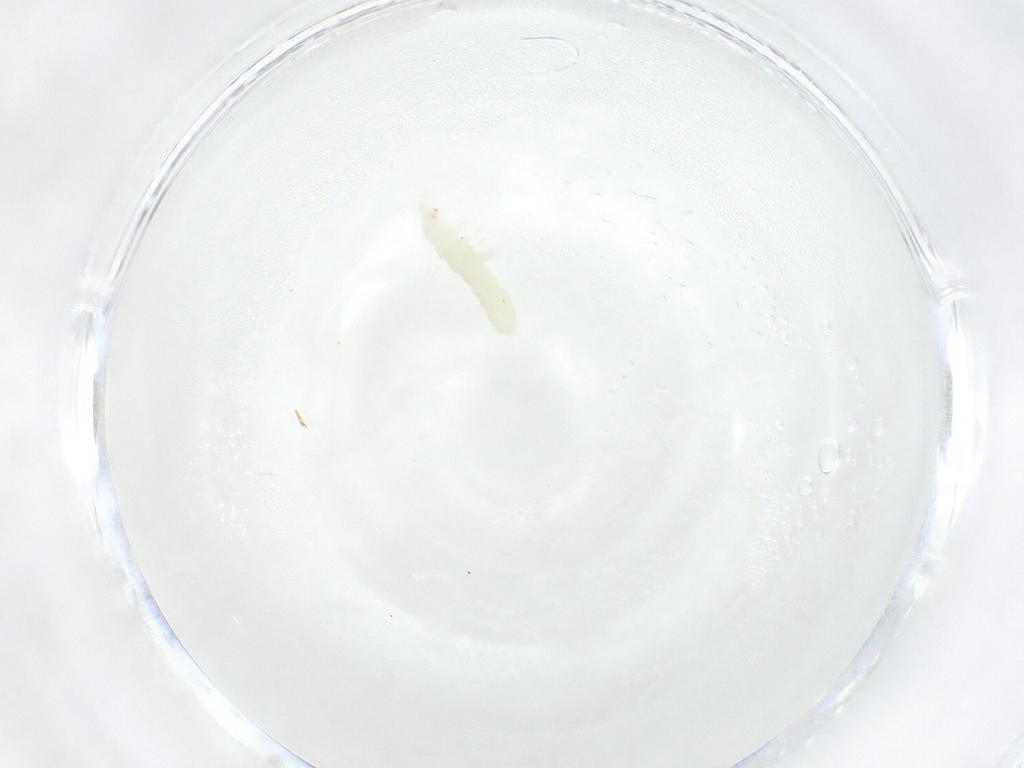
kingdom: Animalia
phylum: Arthropoda
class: Collembola
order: Poduromorpha
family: Onychiuridae
